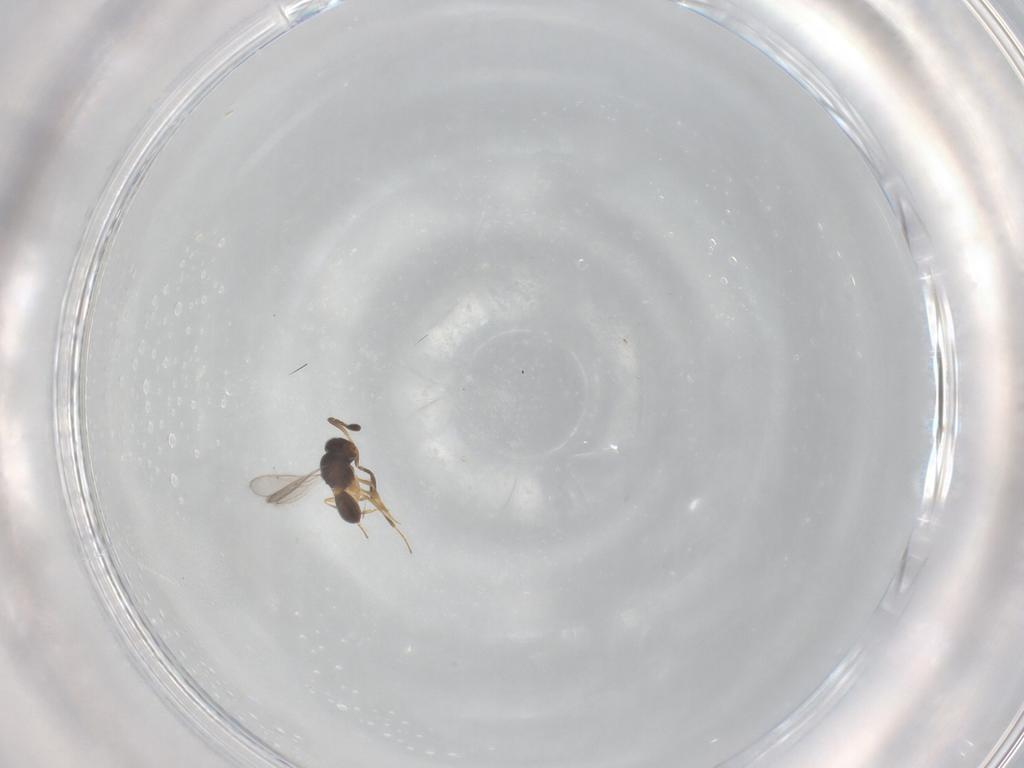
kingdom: Animalia
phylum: Arthropoda
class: Insecta
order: Hymenoptera
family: Scelionidae
